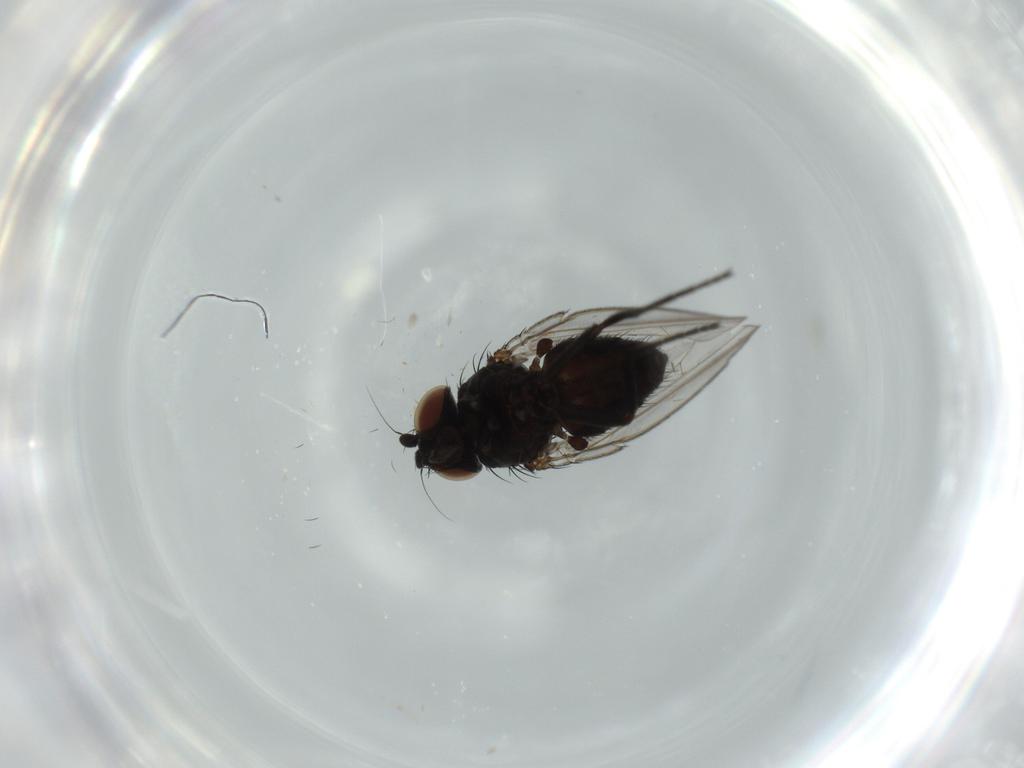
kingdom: Animalia
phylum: Arthropoda
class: Insecta
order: Diptera
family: Milichiidae
